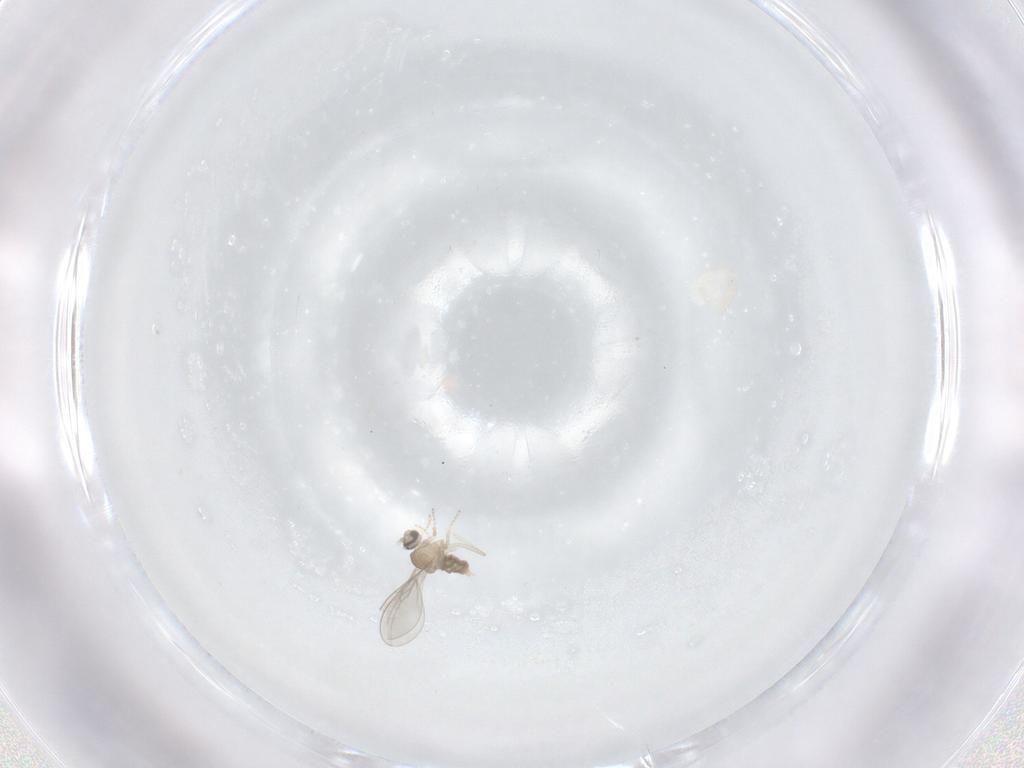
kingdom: Animalia
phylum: Arthropoda
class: Insecta
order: Diptera
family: Cecidomyiidae
